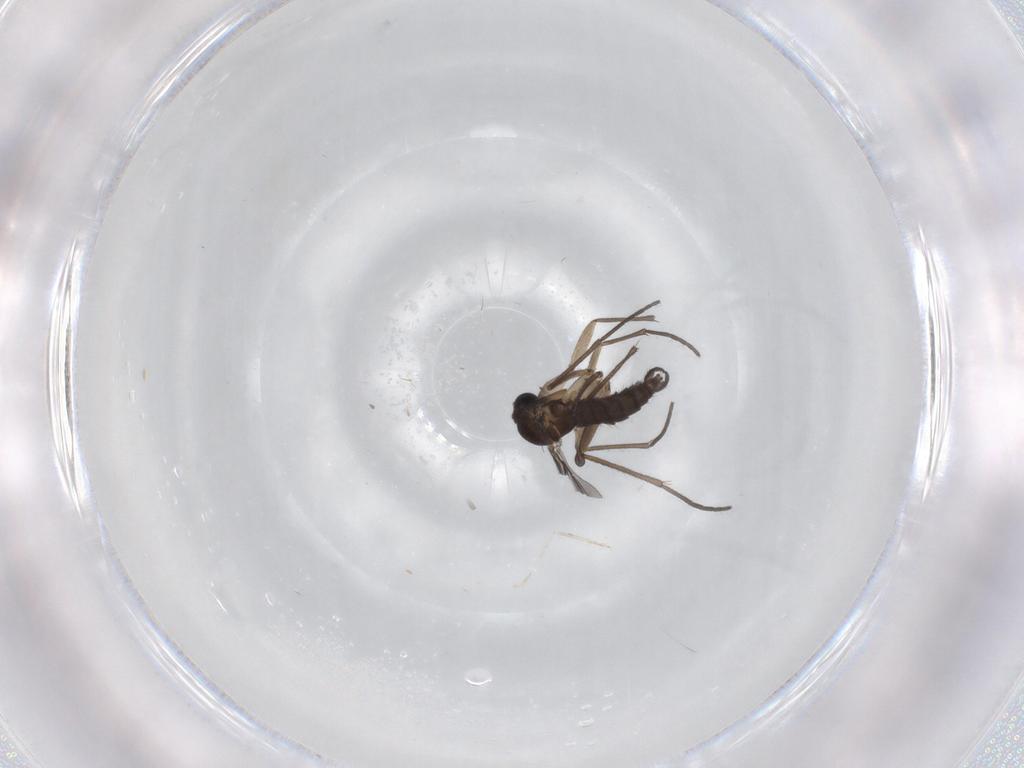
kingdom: Animalia
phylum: Arthropoda
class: Insecta
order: Diptera
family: Sciaridae
